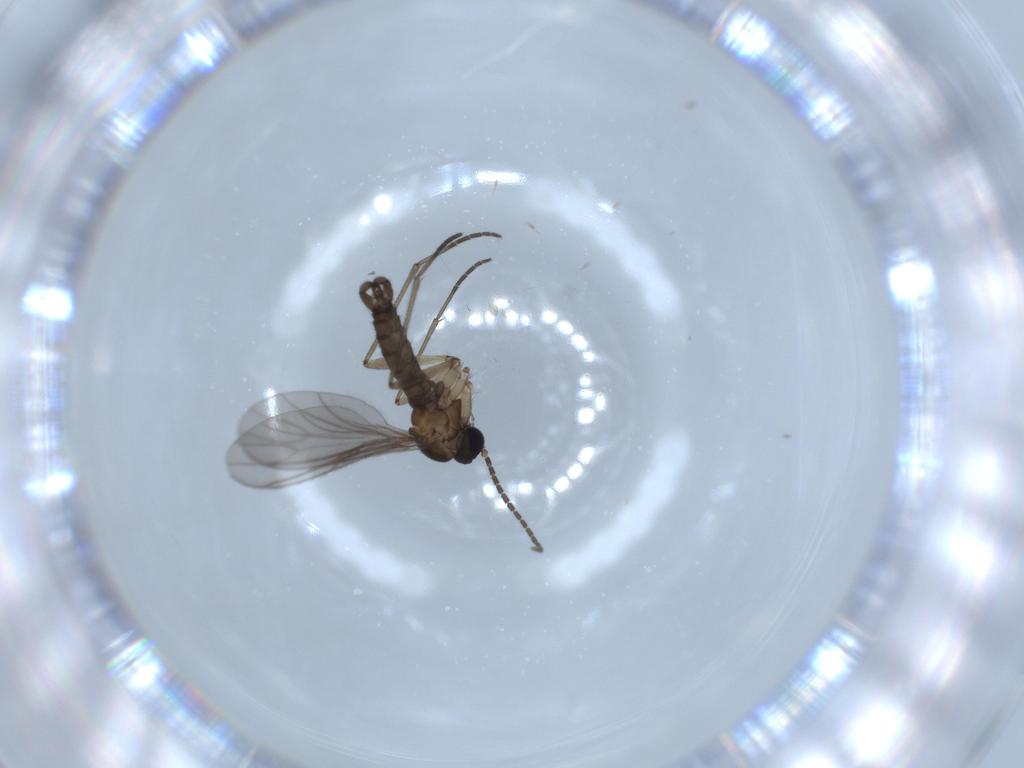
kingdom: Animalia
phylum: Arthropoda
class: Insecta
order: Diptera
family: Sciaridae
